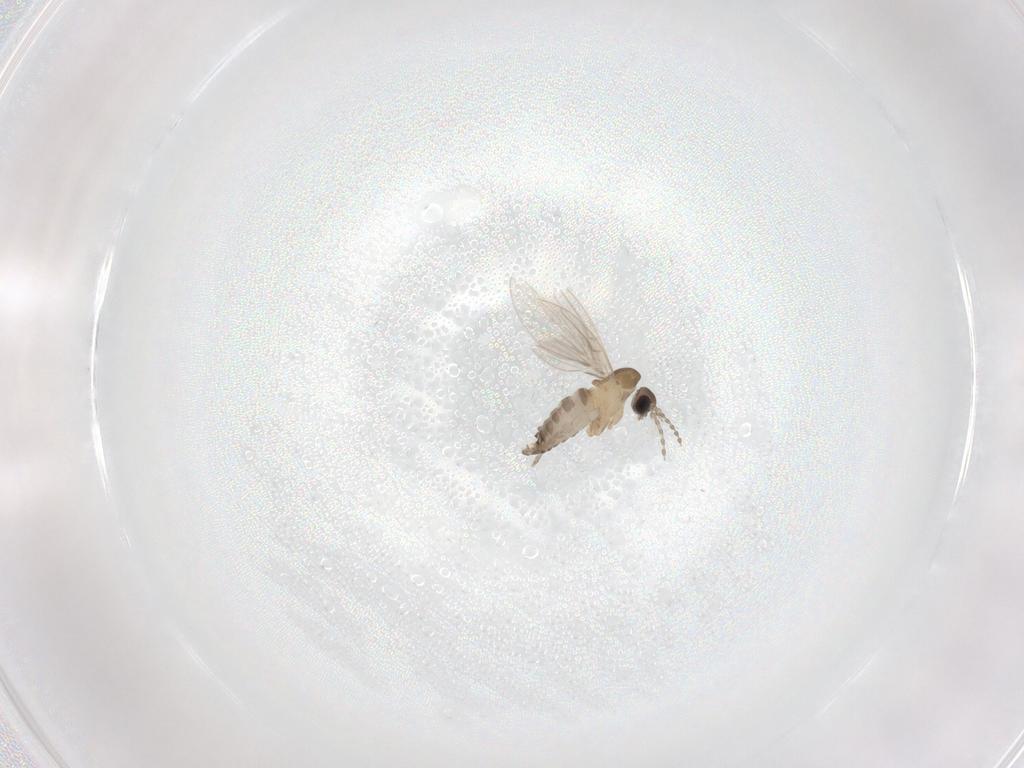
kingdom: Animalia
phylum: Arthropoda
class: Insecta
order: Diptera
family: Psychodidae
